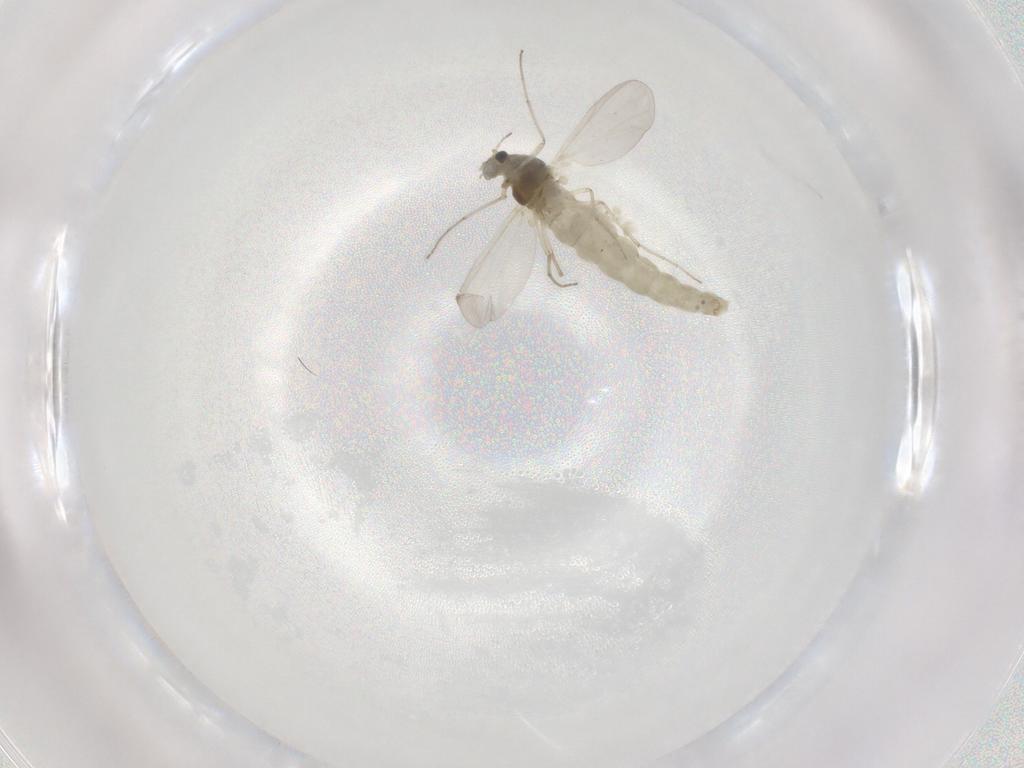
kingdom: Animalia
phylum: Arthropoda
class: Insecta
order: Diptera
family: Chironomidae
